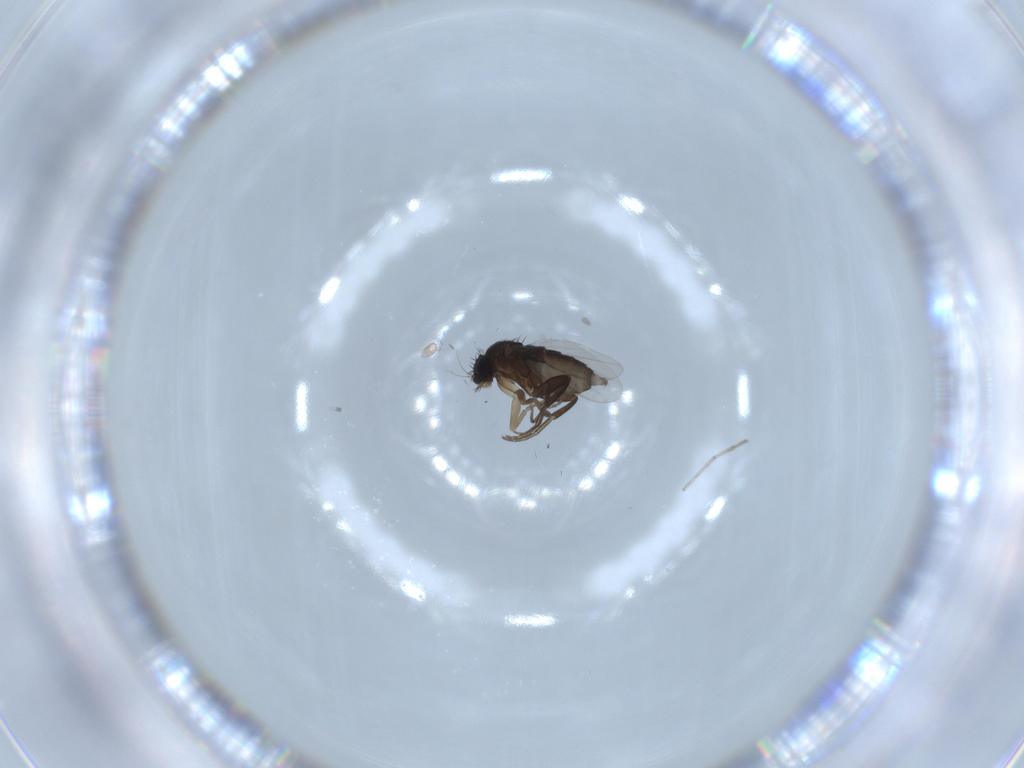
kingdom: Animalia
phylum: Arthropoda
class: Insecta
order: Diptera
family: Phoridae
